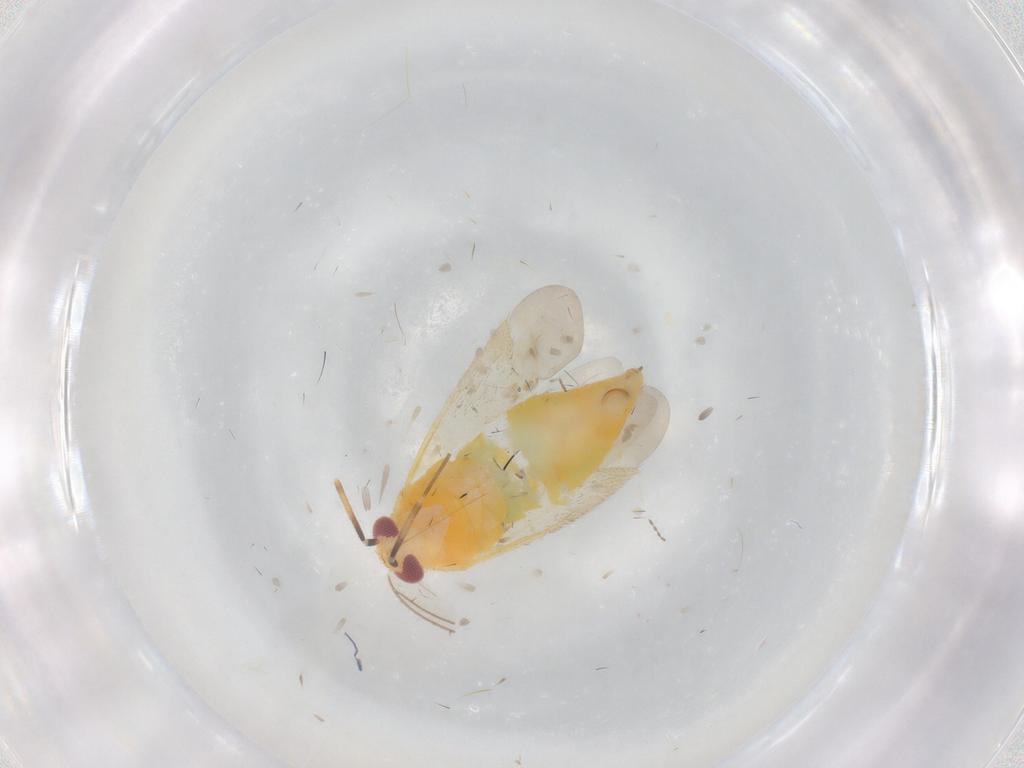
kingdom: Animalia
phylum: Arthropoda
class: Insecta
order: Hemiptera
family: Miridae
